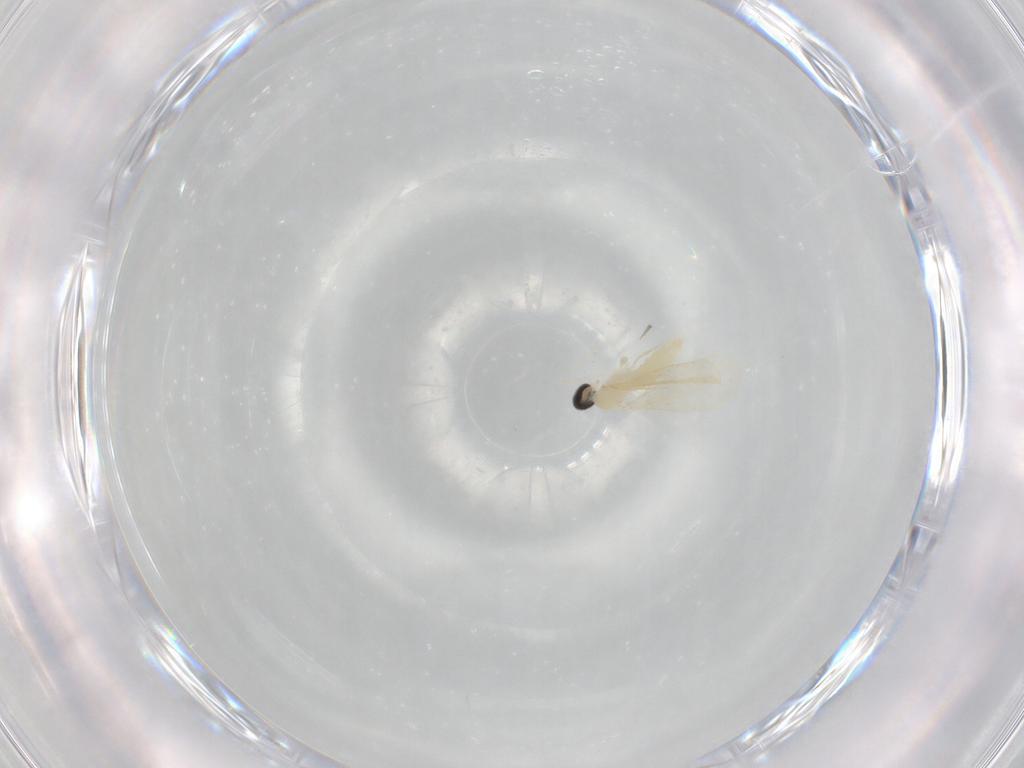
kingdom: Animalia
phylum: Arthropoda
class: Insecta
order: Diptera
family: Cecidomyiidae
